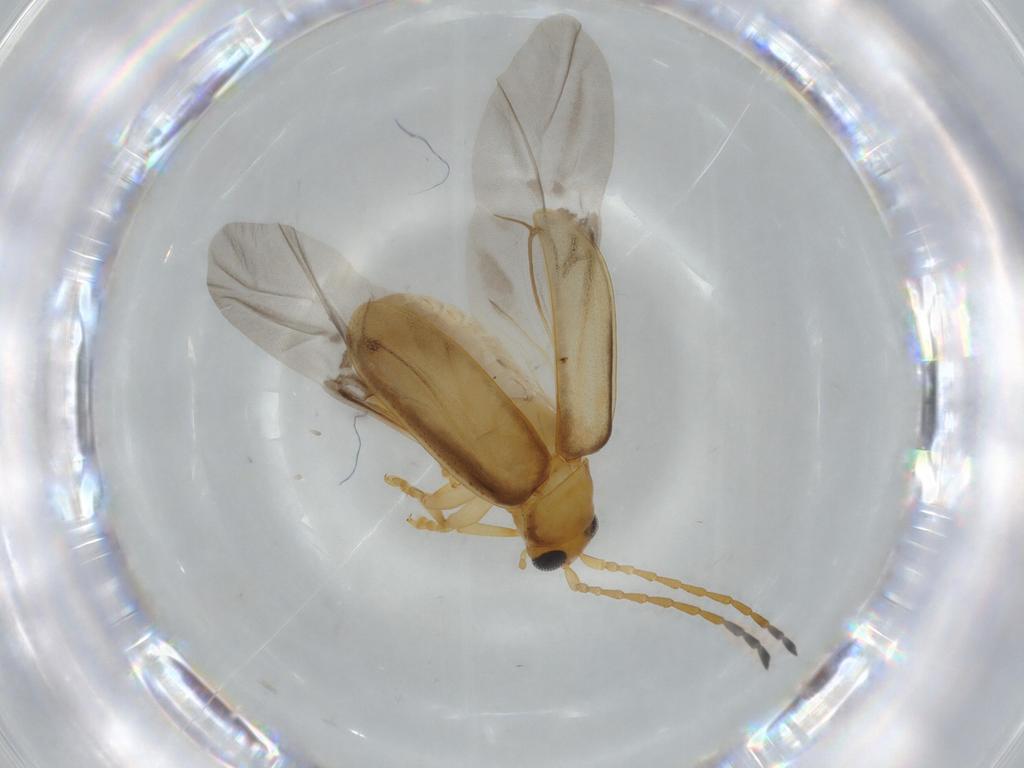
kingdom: Animalia
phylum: Arthropoda
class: Insecta
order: Coleoptera
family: Chrysomelidae
